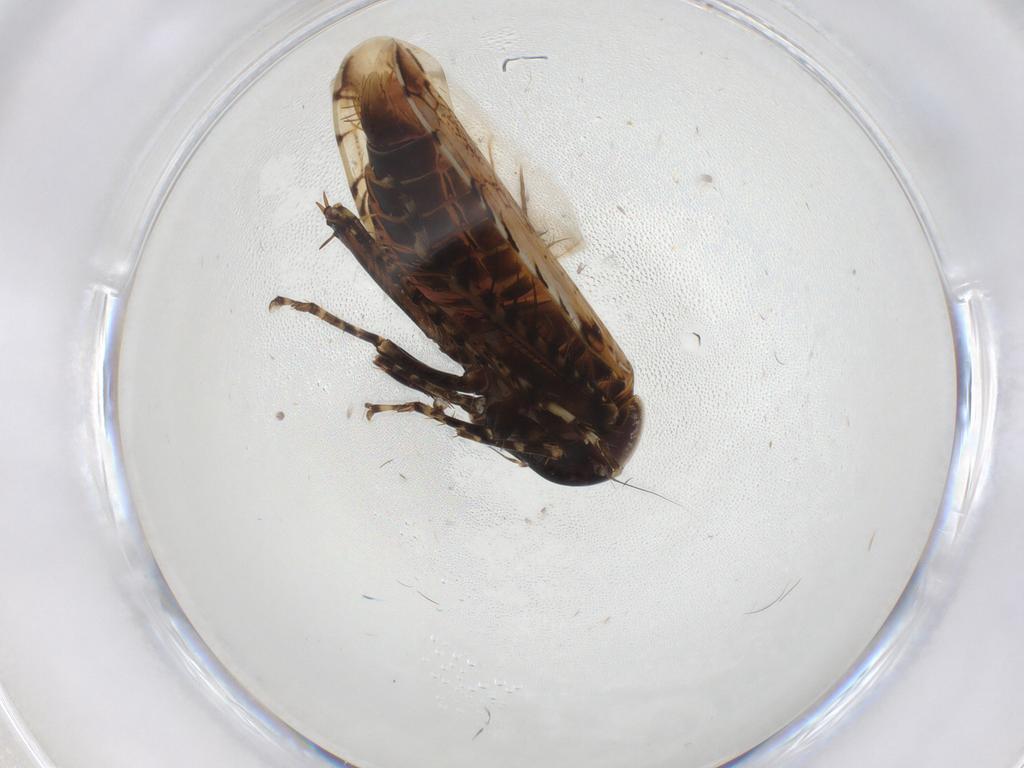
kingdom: Animalia
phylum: Arthropoda
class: Insecta
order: Hemiptera
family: Cicadellidae
